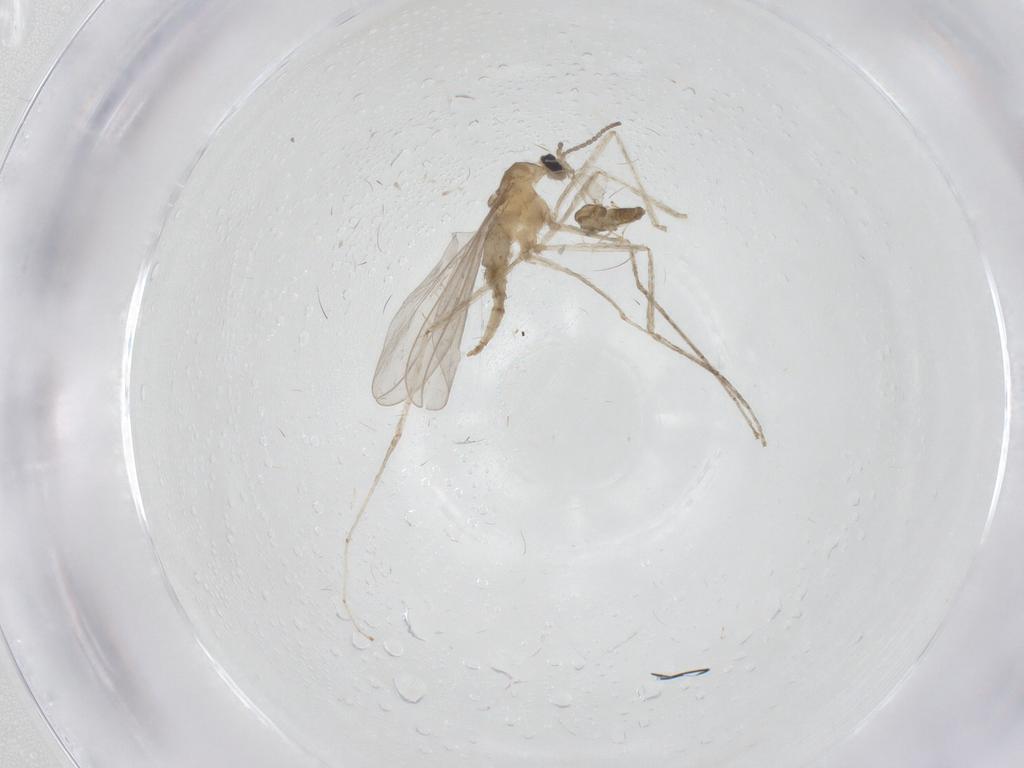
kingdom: Animalia
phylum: Arthropoda
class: Insecta
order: Diptera
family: Cecidomyiidae
